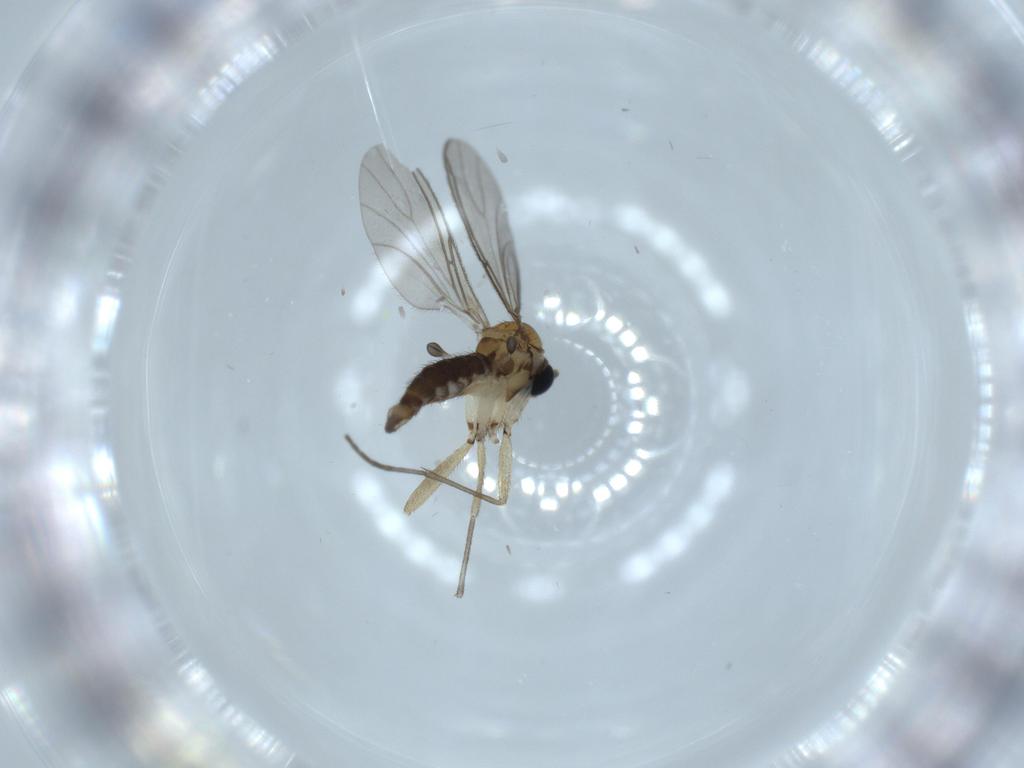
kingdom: Animalia
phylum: Arthropoda
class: Insecta
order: Diptera
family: Sciaridae
